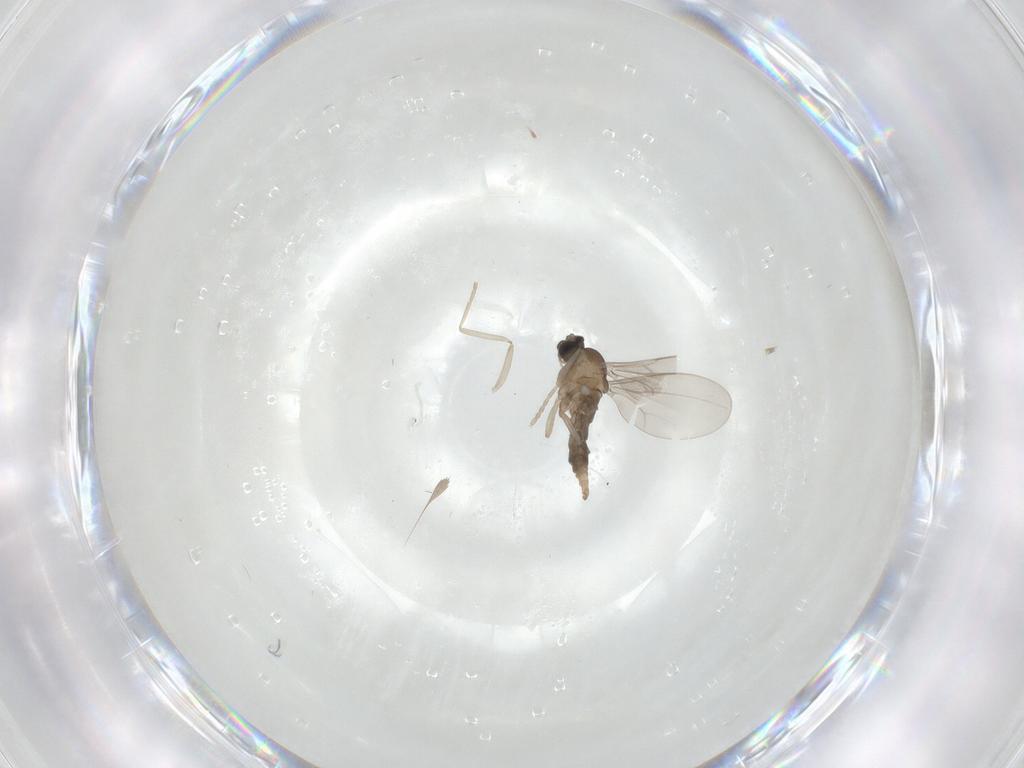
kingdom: Animalia
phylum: Arthropoda
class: Insecta
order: Diptera
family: Cecidomyiidae
